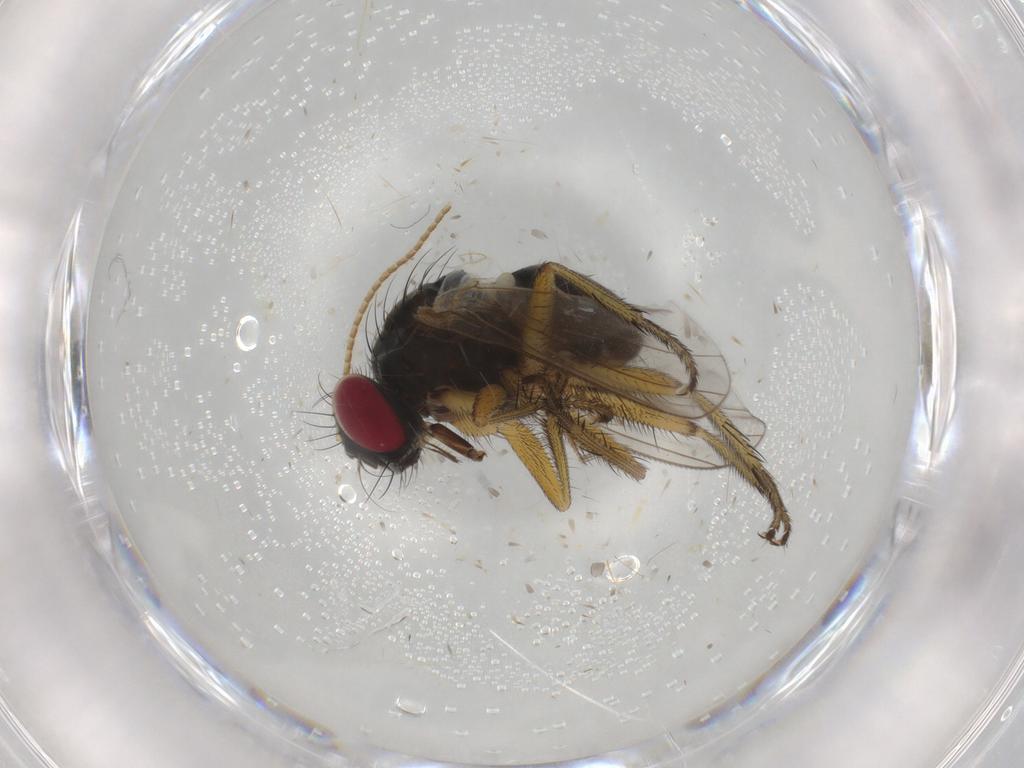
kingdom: Animalia
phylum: Arthropoda
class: Insecta
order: Diptera
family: Muscidae
